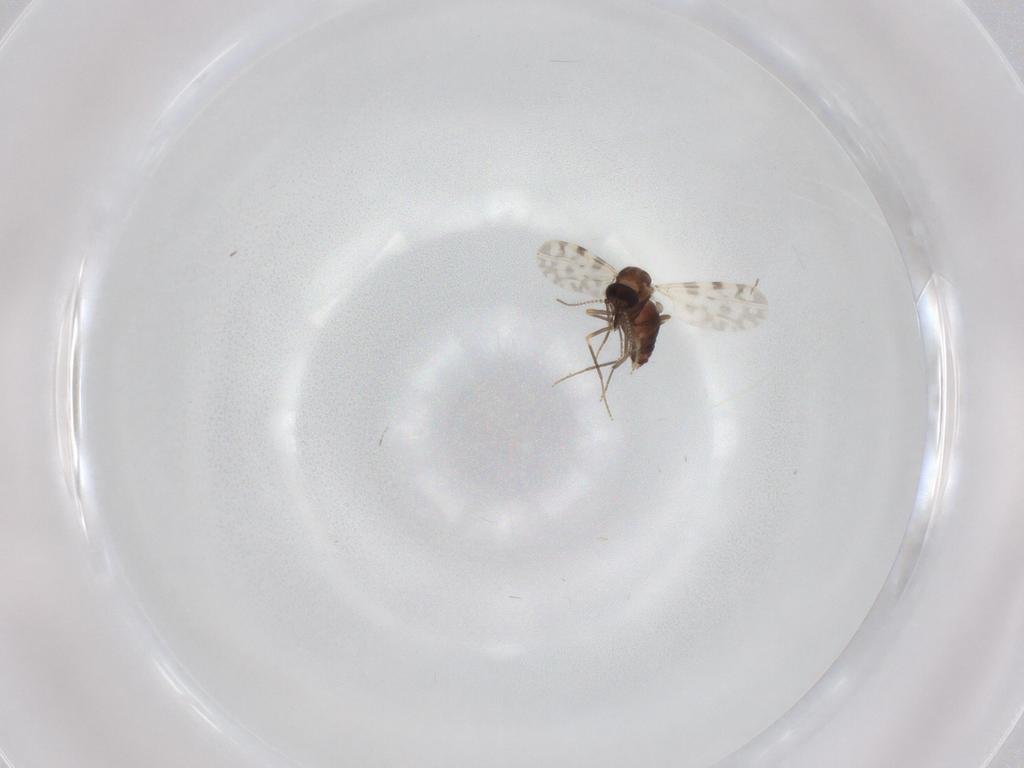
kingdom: Animalia
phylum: Arthropoda
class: Insecta
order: Diptera
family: Ceratopogonidae
